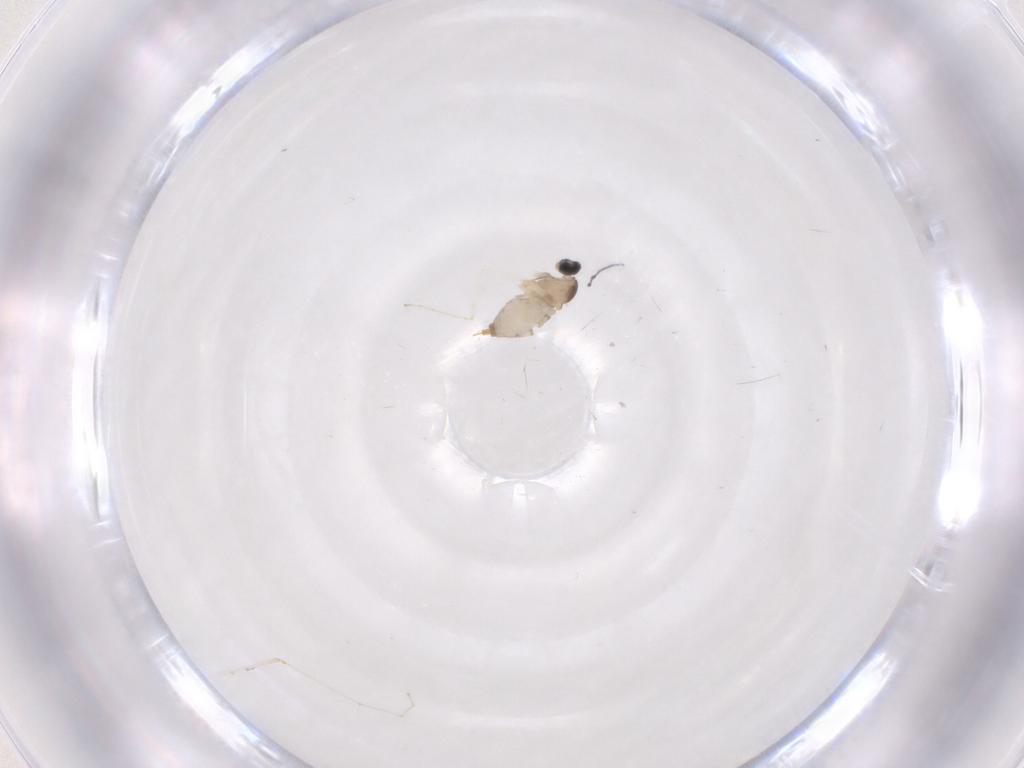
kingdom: Animalia
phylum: Arthropoda
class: Insecta
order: Diptera
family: Cecidomyiidae
